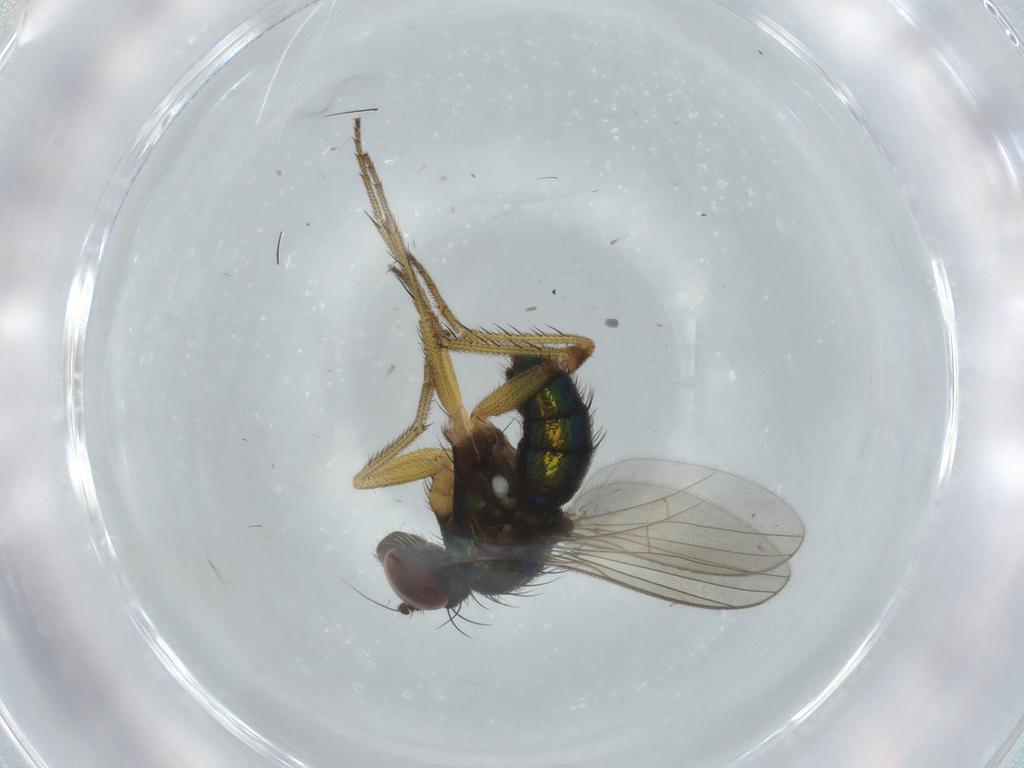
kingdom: Animalia
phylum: Arthropoda
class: Insecta
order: Diptera
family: Dolichopodidae
